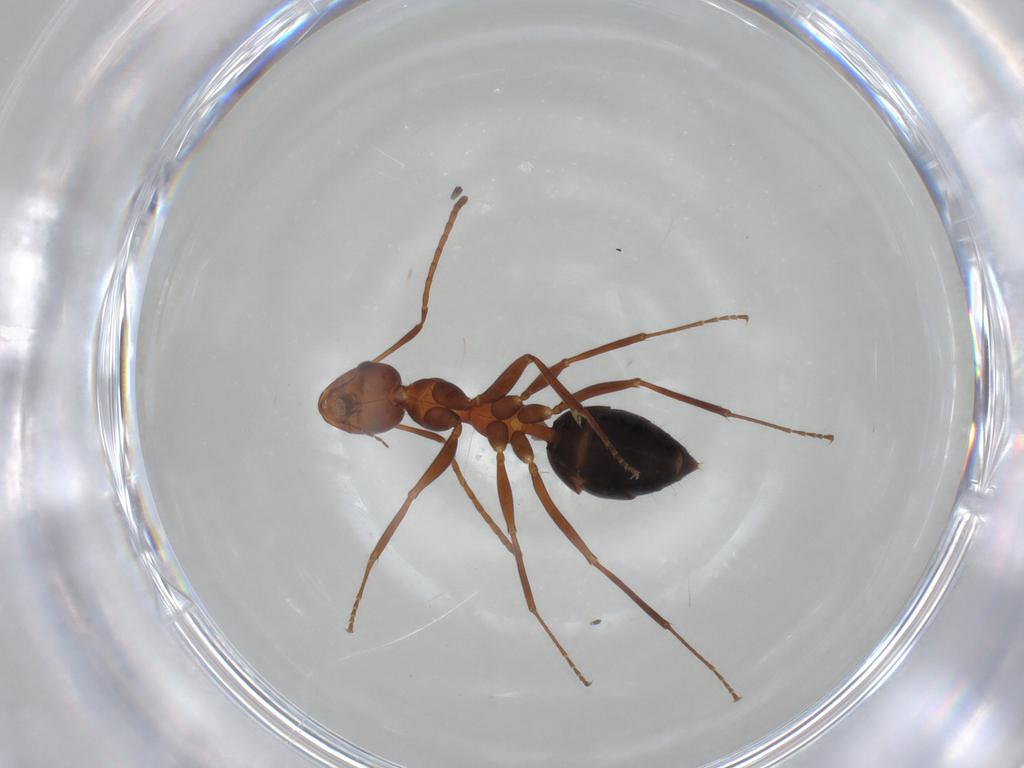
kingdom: Animalia
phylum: Arthropoda
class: Insecta
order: Hymenoptera
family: Formicidae
